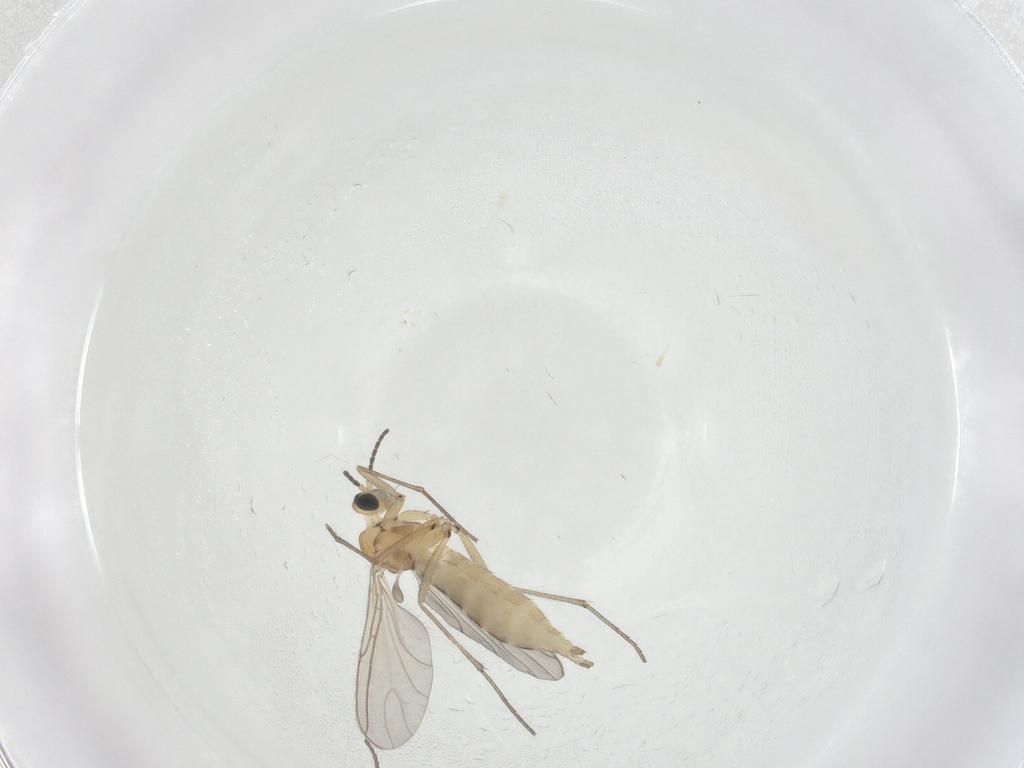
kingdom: Animalia
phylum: Arthropoda
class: Insecta
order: Diptera
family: Sciaridae
